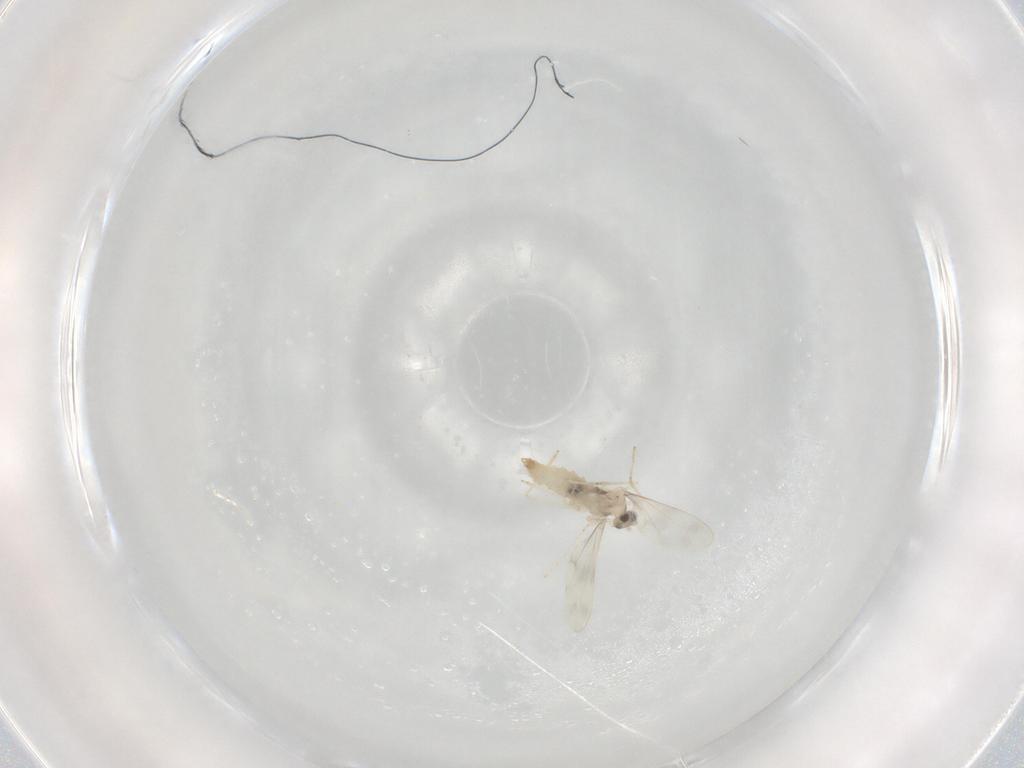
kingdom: Animalia
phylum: Arthropoda
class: Insecta
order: Diptera
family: Cecidomyiidae
